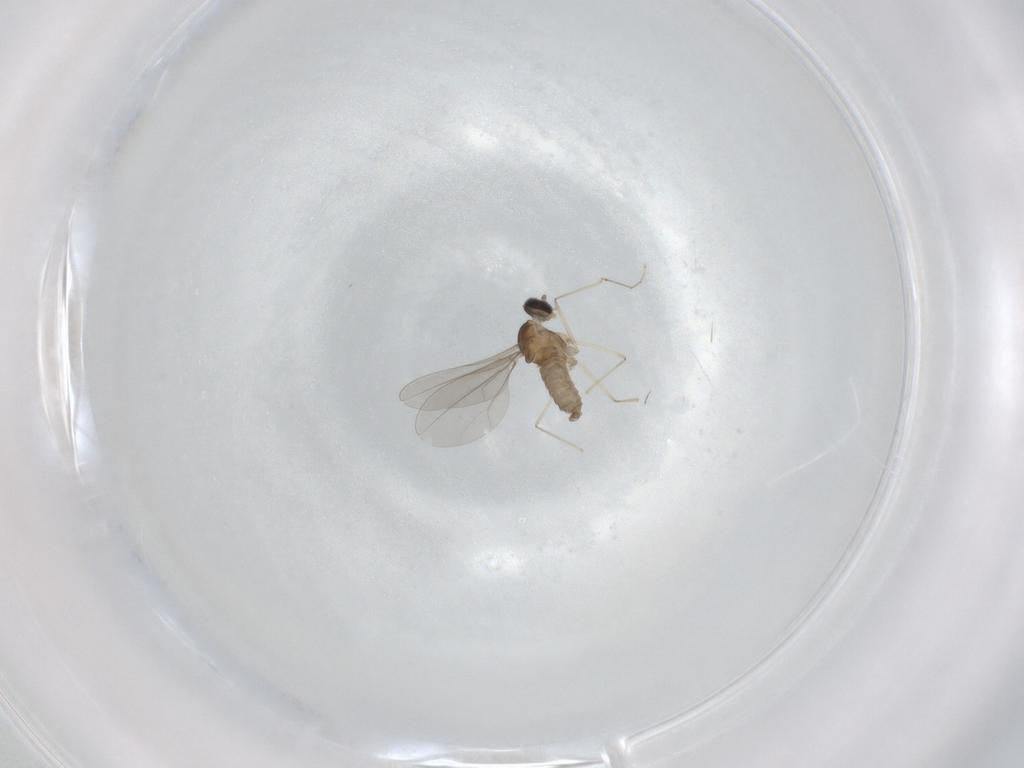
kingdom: Animalia
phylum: Arthropoda
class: Insecta
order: Diptera
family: Cecidomyiidae
